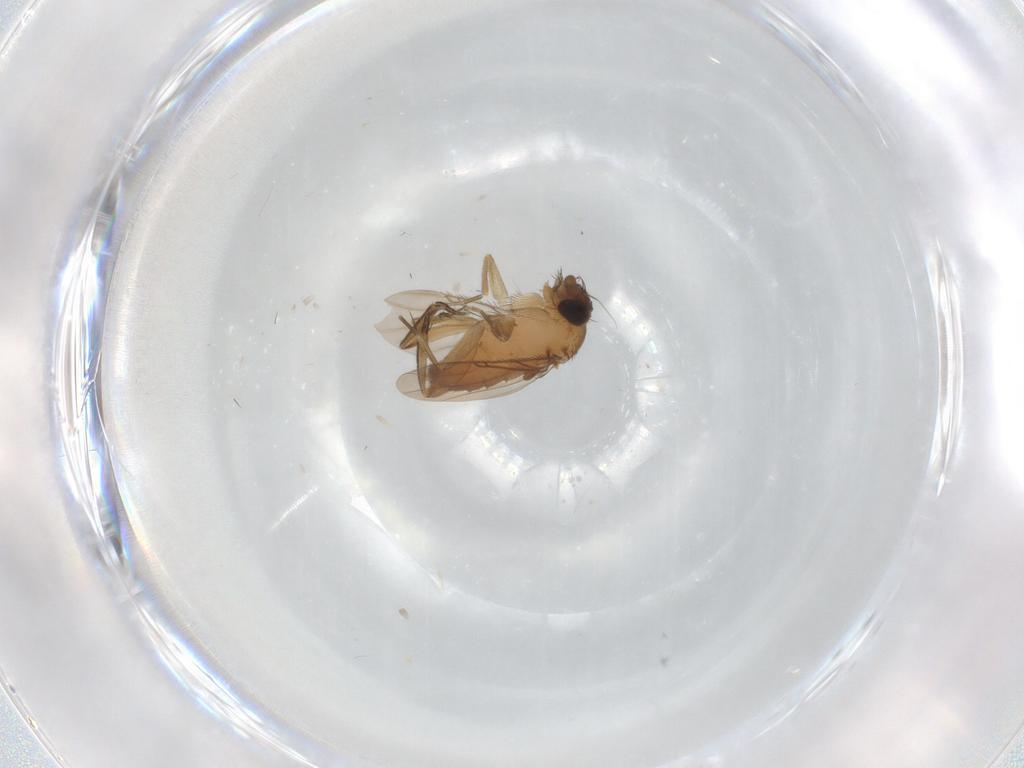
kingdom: Animalia
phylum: Arthropoda
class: Insecta
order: Diptera
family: Phoridae
